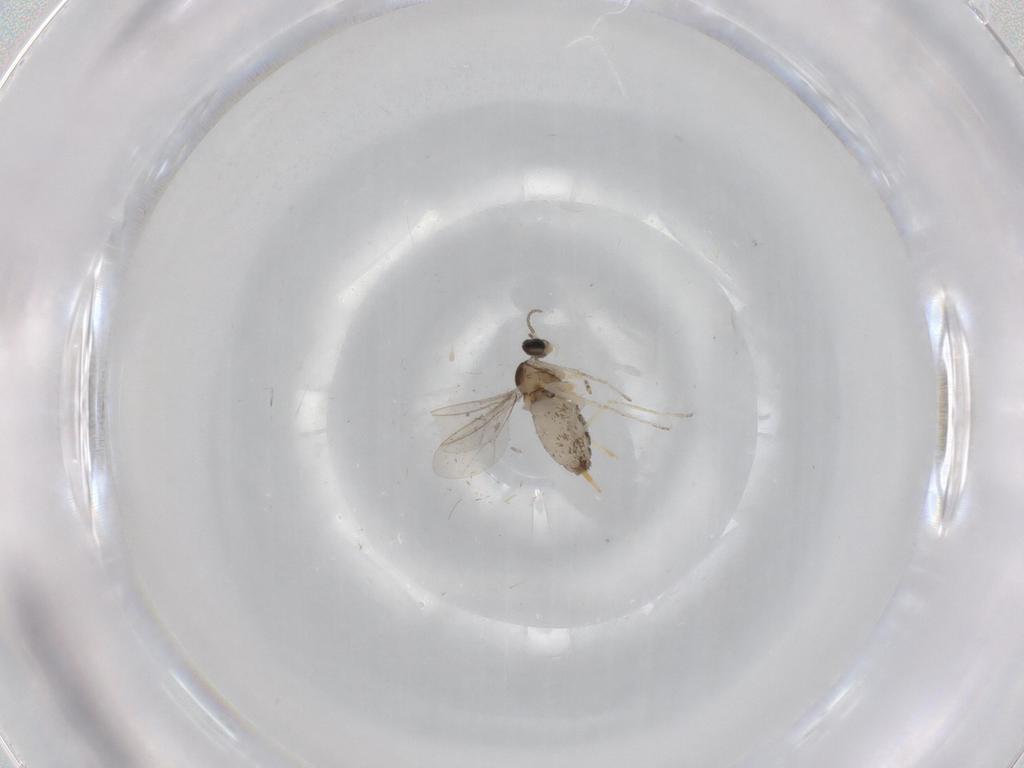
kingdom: Animalia
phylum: Arthropoda
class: Insecta
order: Diptera
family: Cecidomyiidae
